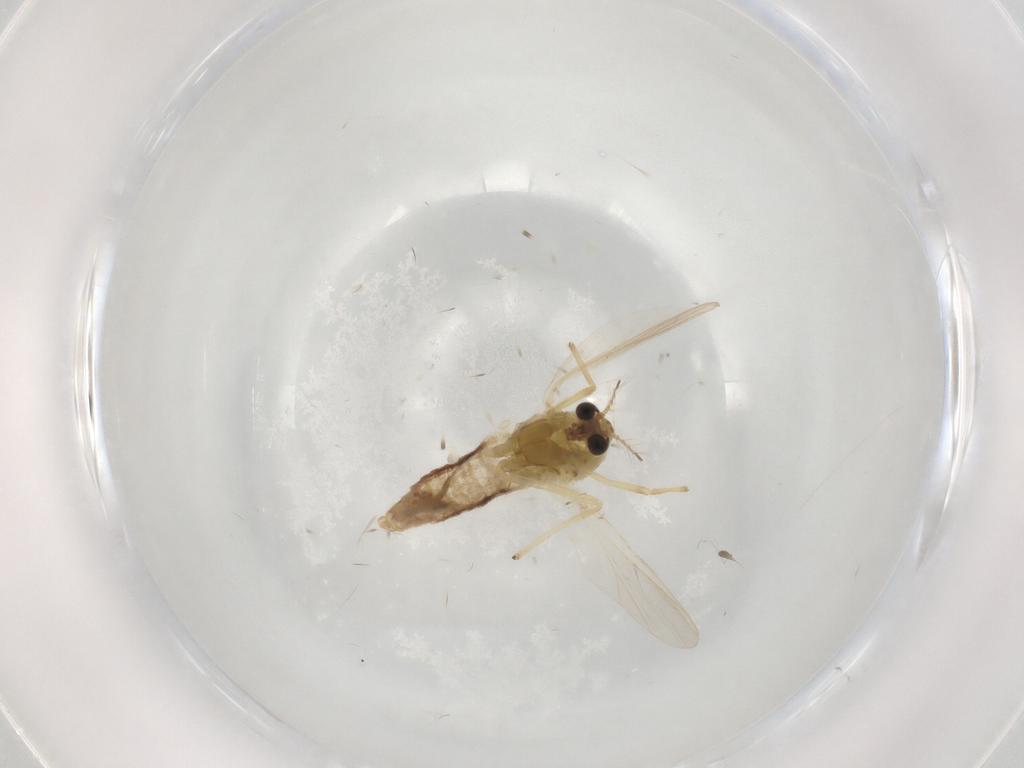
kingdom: Animalia
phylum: Arthropoda
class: Insecta
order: Diptera
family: Chironomidae
